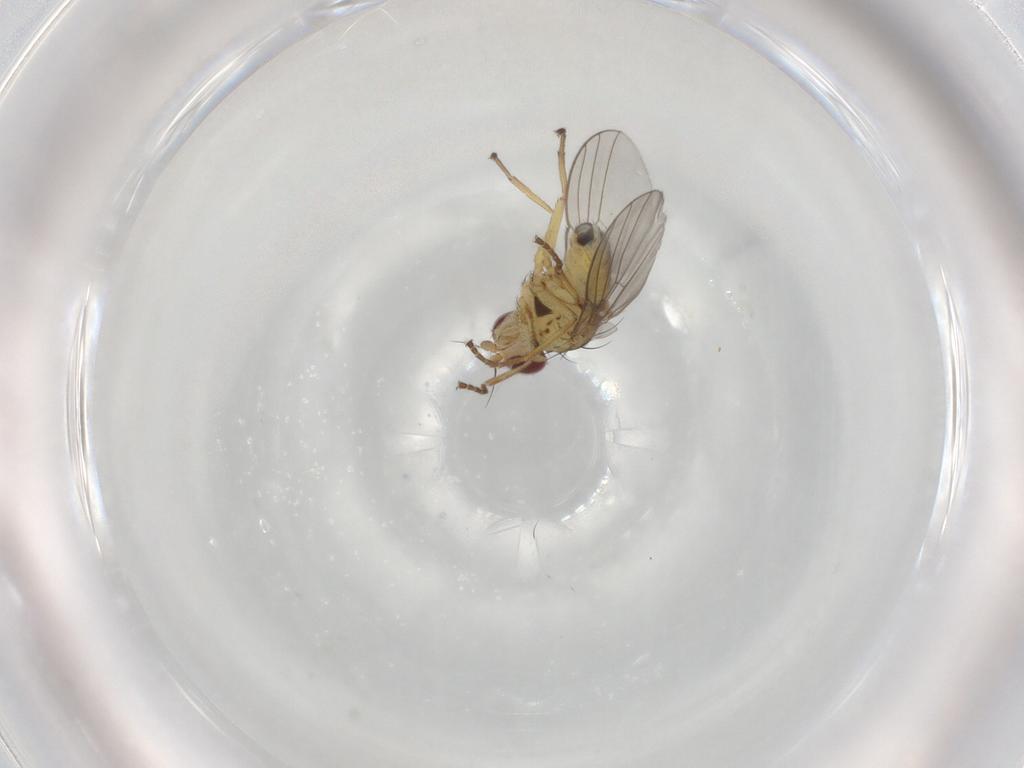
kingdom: Animalia
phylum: Arthropoda
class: Insecta
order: Diptera
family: Agromyzidae
